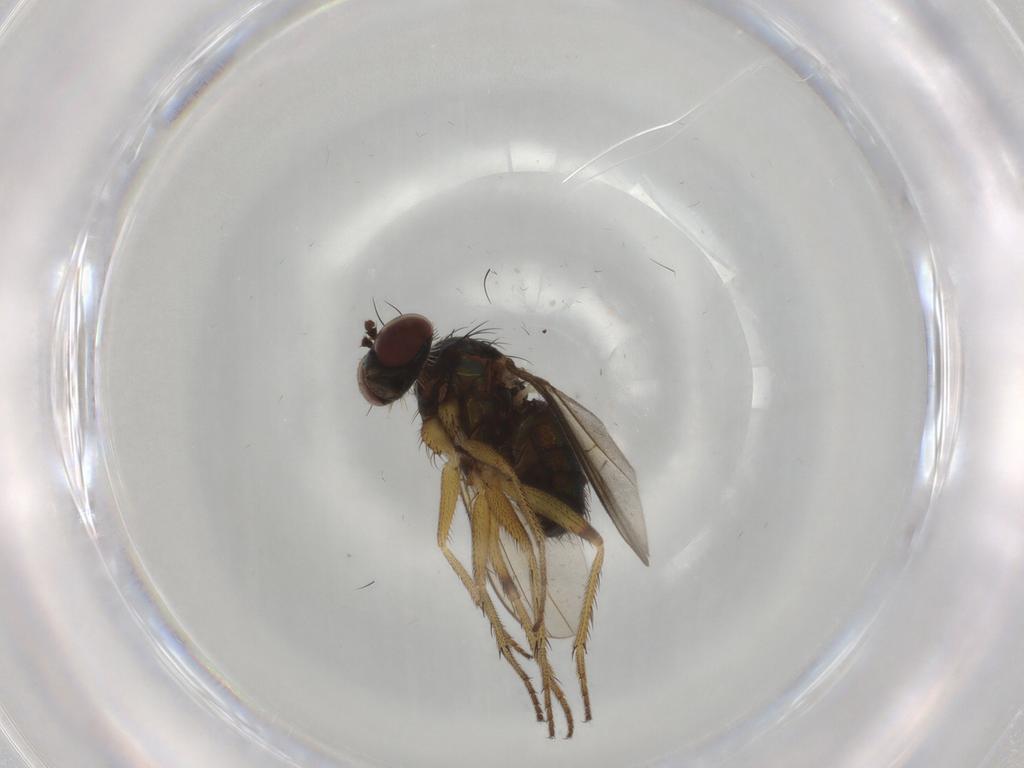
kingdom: Animalia
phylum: Arthropoda
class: Insecta
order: Diptera
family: Dolichopodidae
